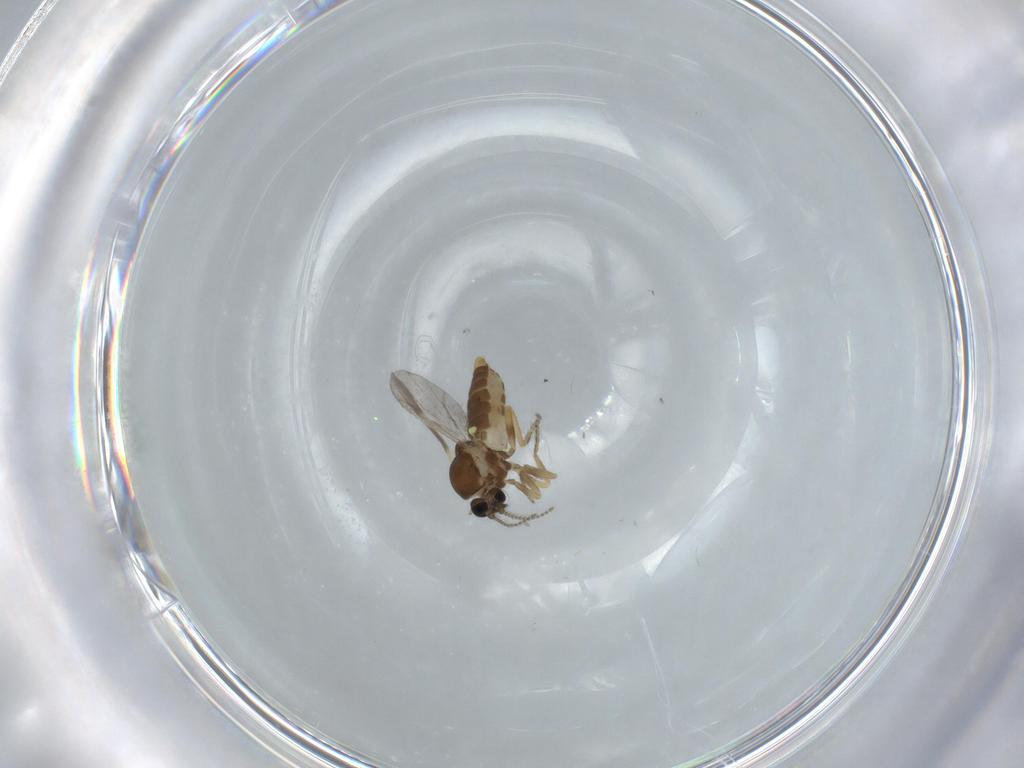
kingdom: Animalia
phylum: Arthropoda
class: Insecta
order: Diptera
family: Ceratopogonidae
